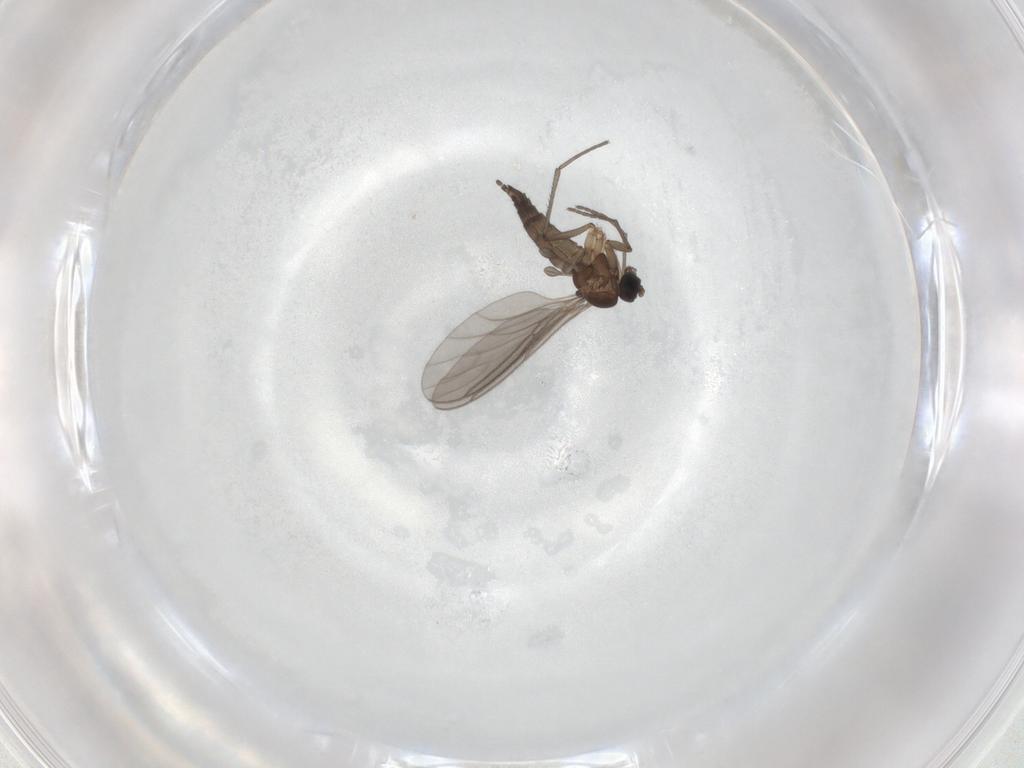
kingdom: Animalia
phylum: Arthropoda
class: Insecta
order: Diptera
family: Sciaridae
